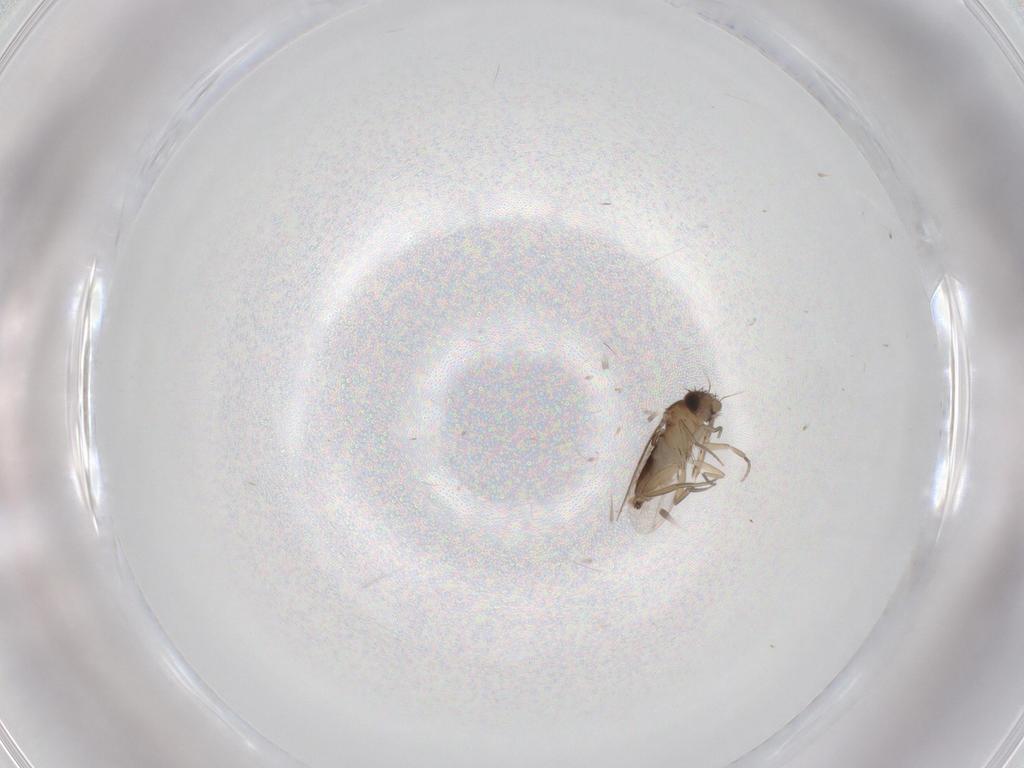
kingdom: Animalia
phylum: Arthropoda
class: Insecta
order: Diptera
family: Phoridae
